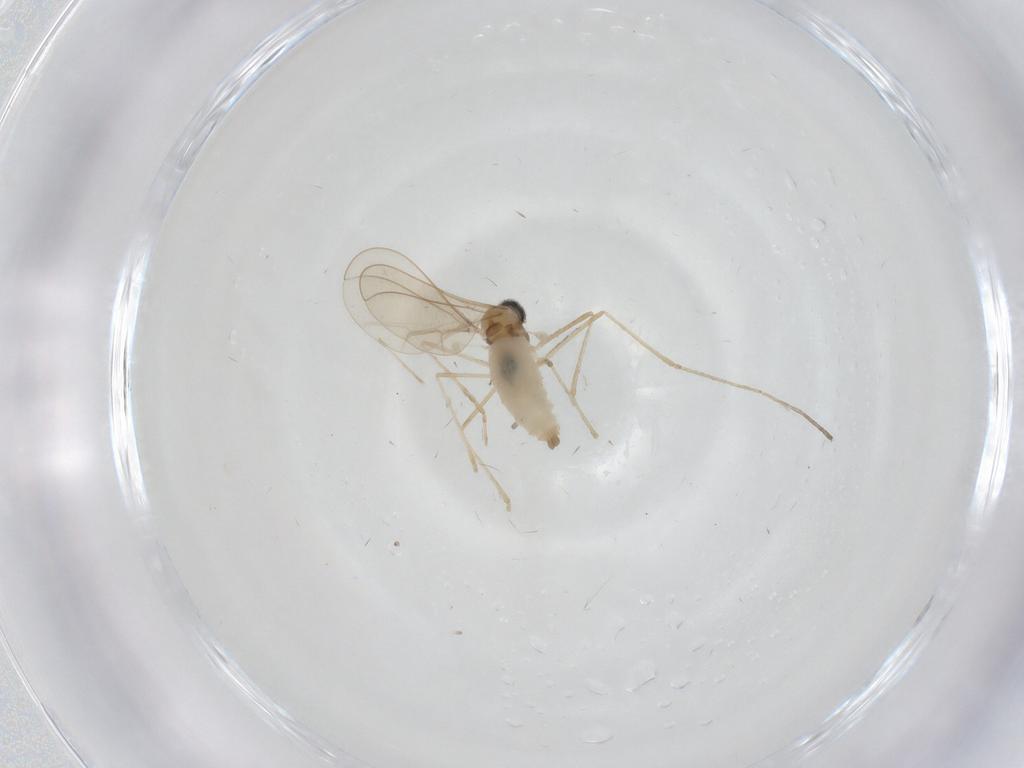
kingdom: Animalia
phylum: Arthropoda
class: Insecta
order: Diptera
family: Cecidomyiidae
